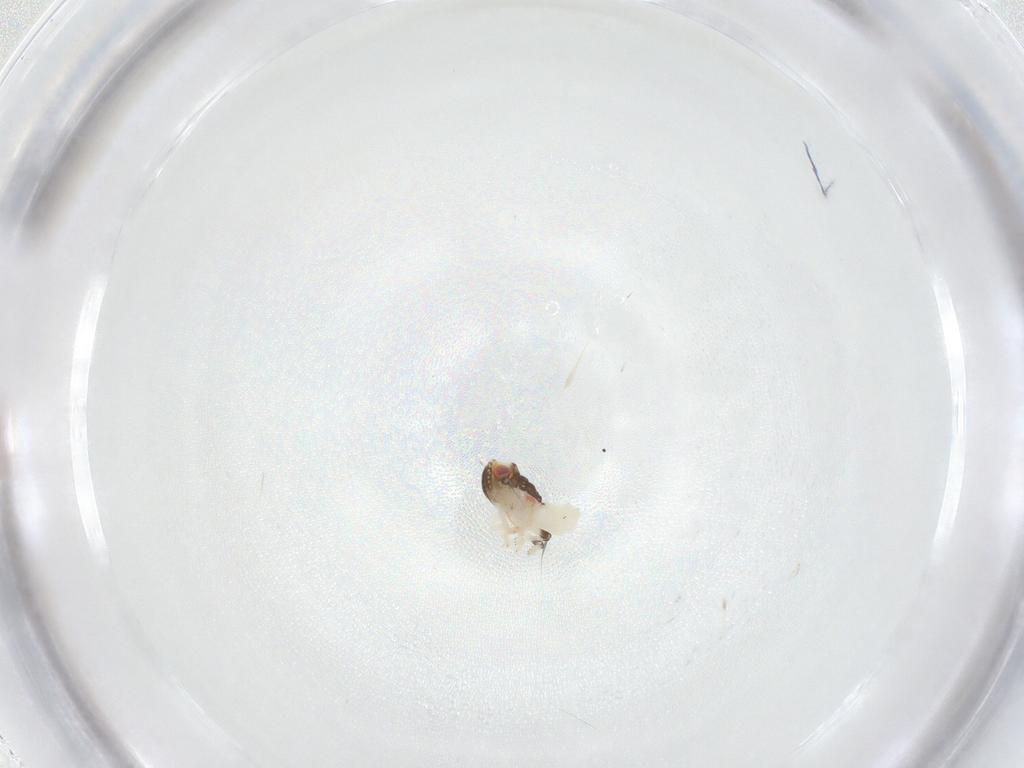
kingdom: Animalia
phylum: Arthropoda
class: Insecta
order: Hemiptera
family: Nogodinidae
